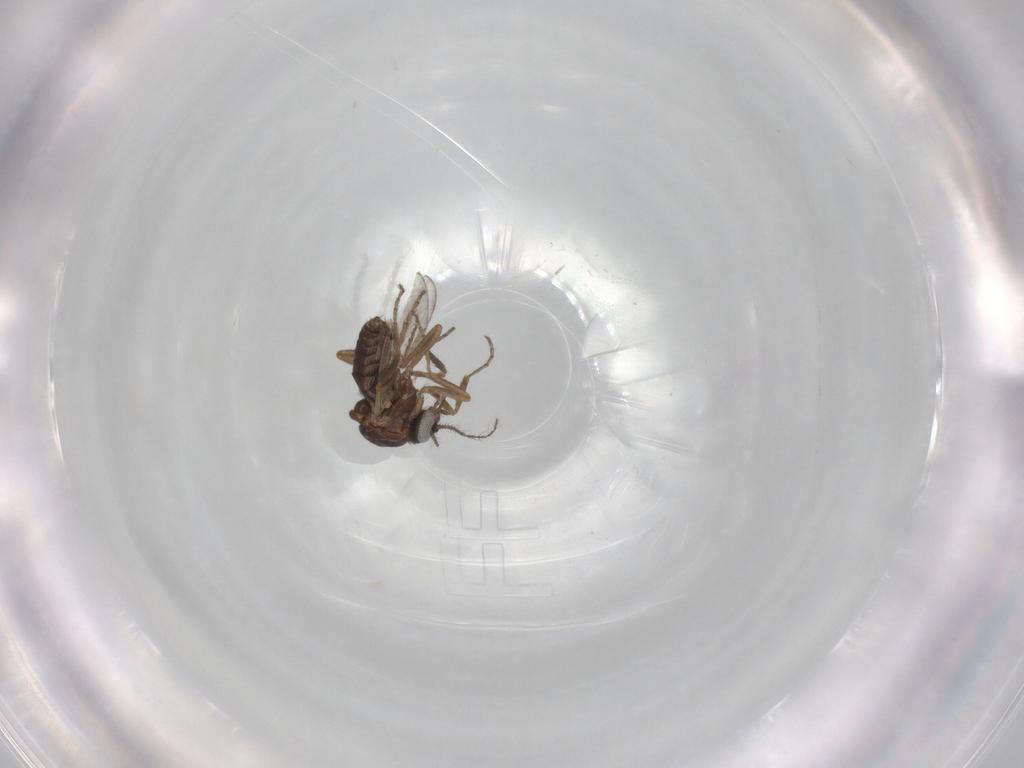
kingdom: Animalia
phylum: Arthropoda
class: Insecta
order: Diptera
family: Ceratopogonidae
